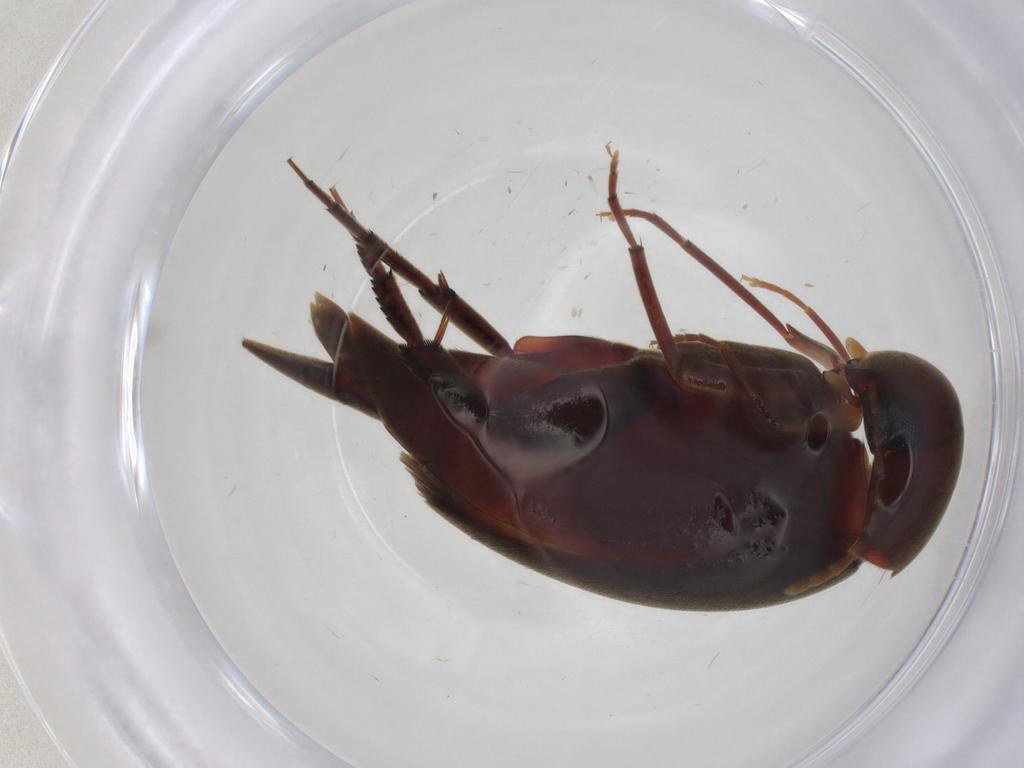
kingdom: Animalia
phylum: Arthropoda
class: Insecta
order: Coleoptera
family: Mordellidae
